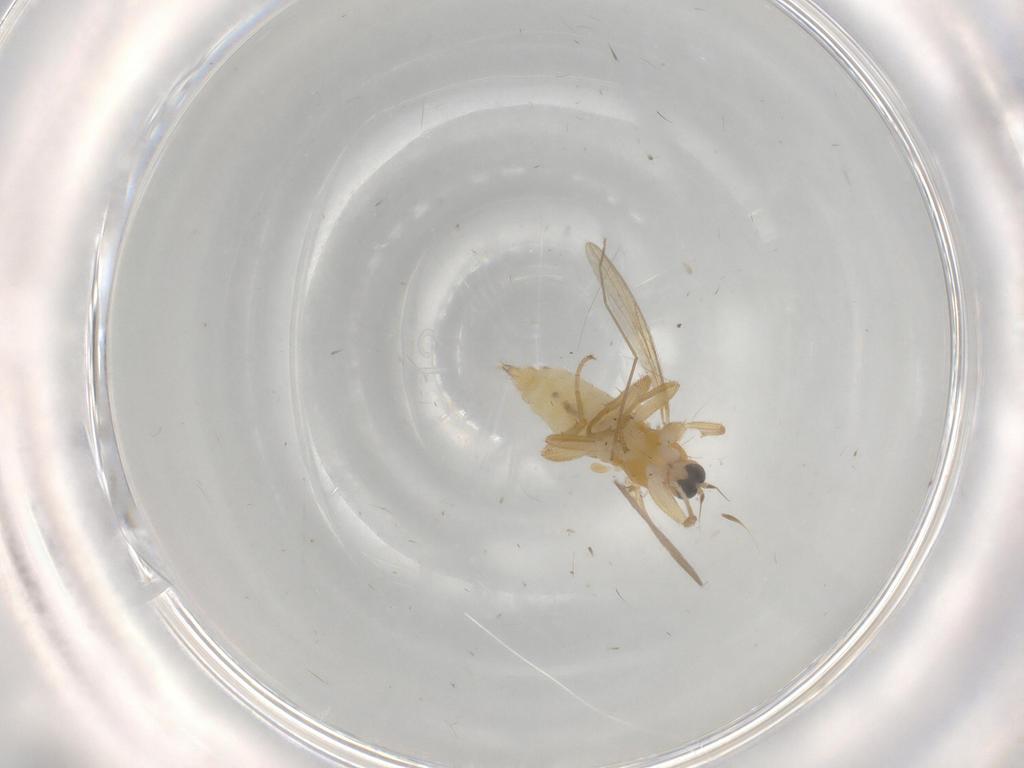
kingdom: Animalia
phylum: Arthropoda
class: Insecta
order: Diptera
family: Hybotidae
